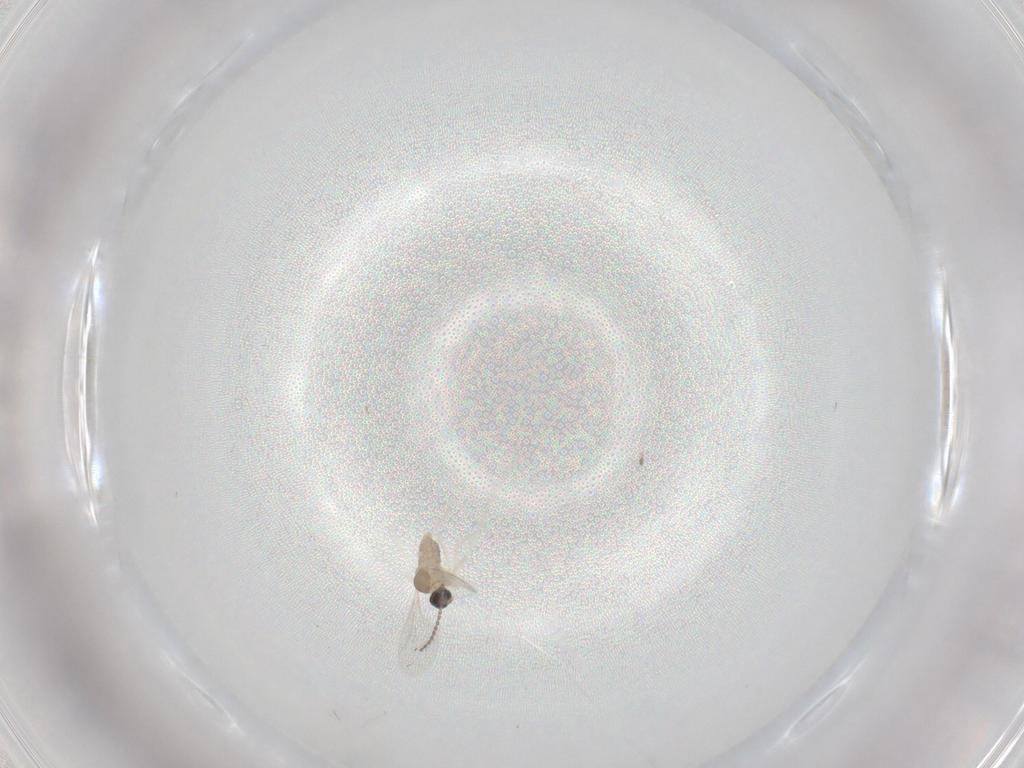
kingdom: Animalia
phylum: Arthropoda
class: Insecta
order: Diptera
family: Cecidomyiidae
